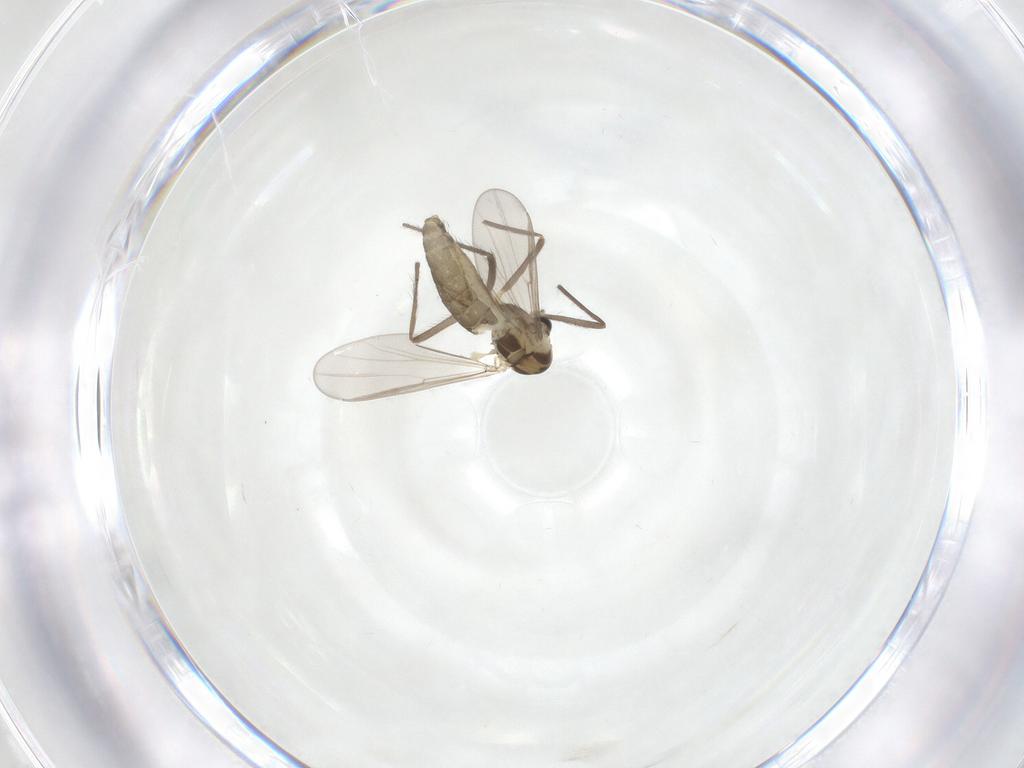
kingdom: Animalia
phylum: Arthropoda
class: Insecta
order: Diptera
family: Chironomidae
